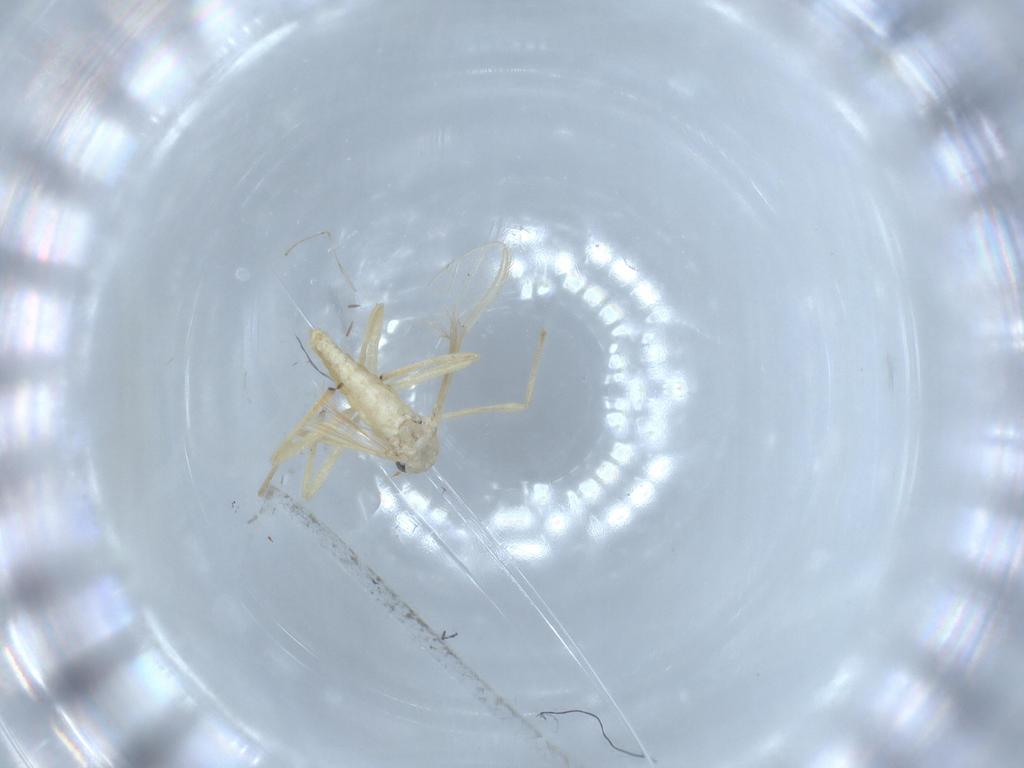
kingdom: Animalia
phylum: Arthropoda
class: Insecta
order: Diptera
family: Chironomidae
